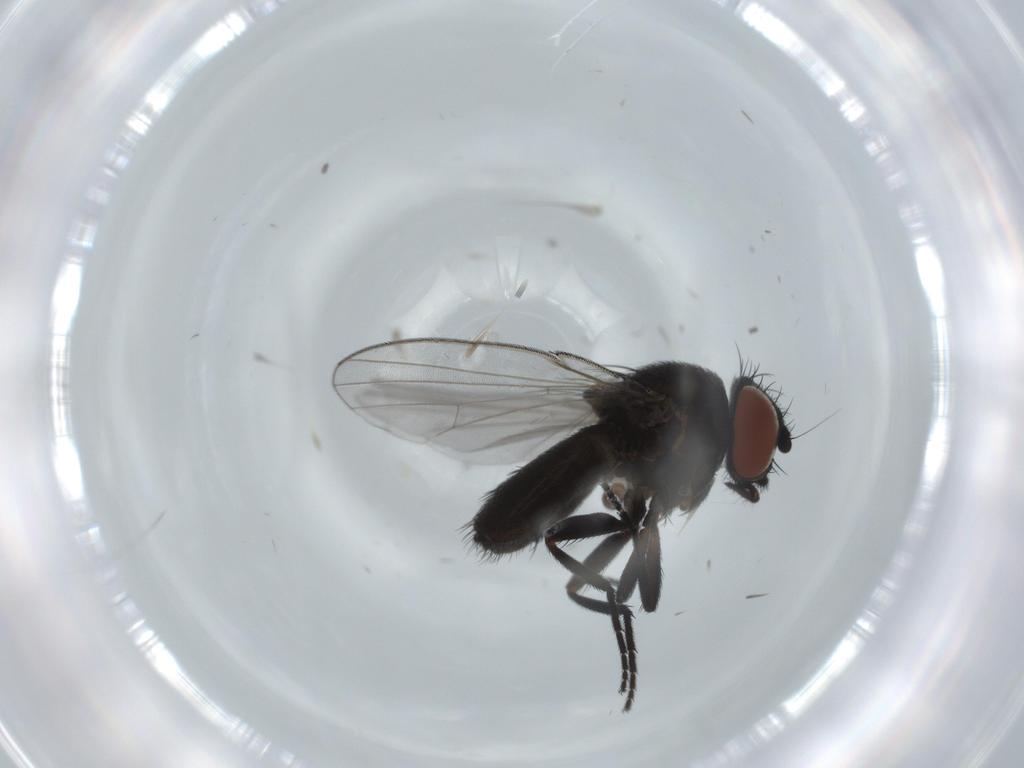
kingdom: Animalia
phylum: Arthropoda
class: Insecta
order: Diptera
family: Milichiidae
